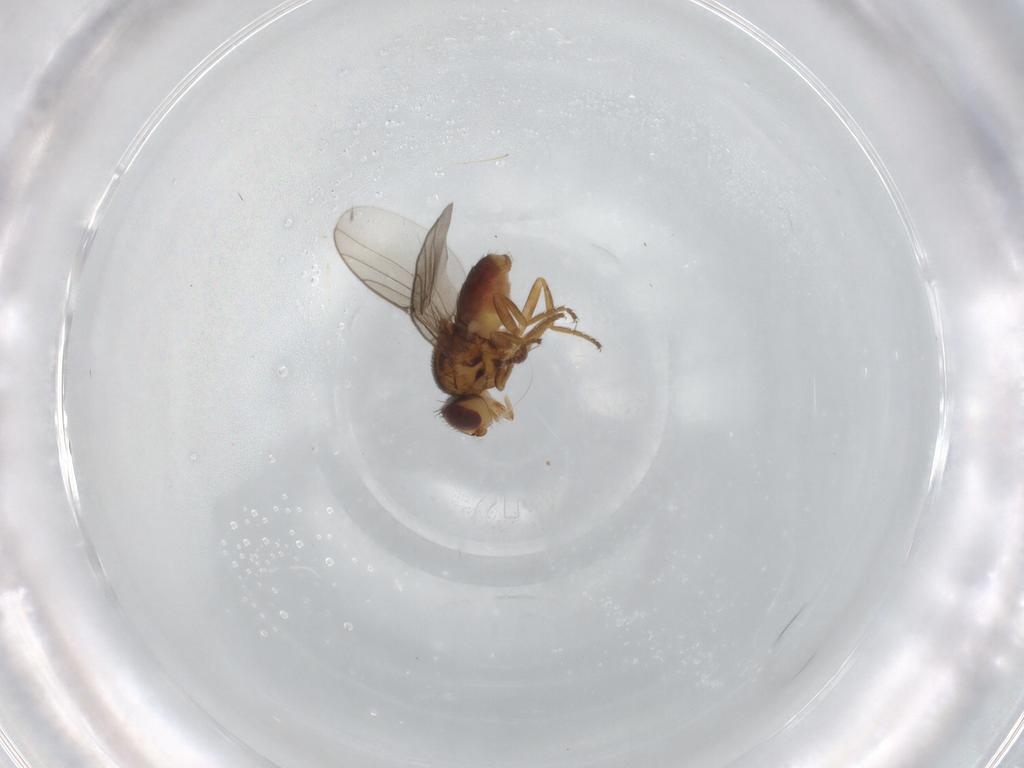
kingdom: Animalia
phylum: Arthropoda
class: Insecta
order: Diptera
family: Chloropidae
